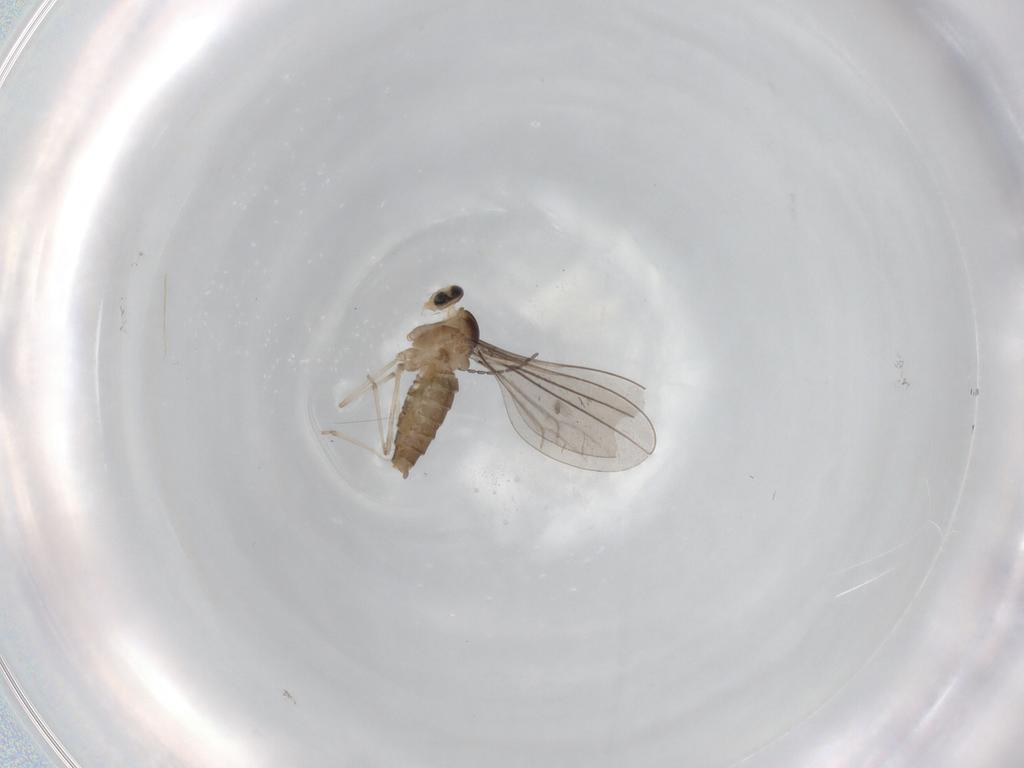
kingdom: Animalia
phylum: Arthropoda
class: Insecta
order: Diptera
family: Cecidomyiidae
